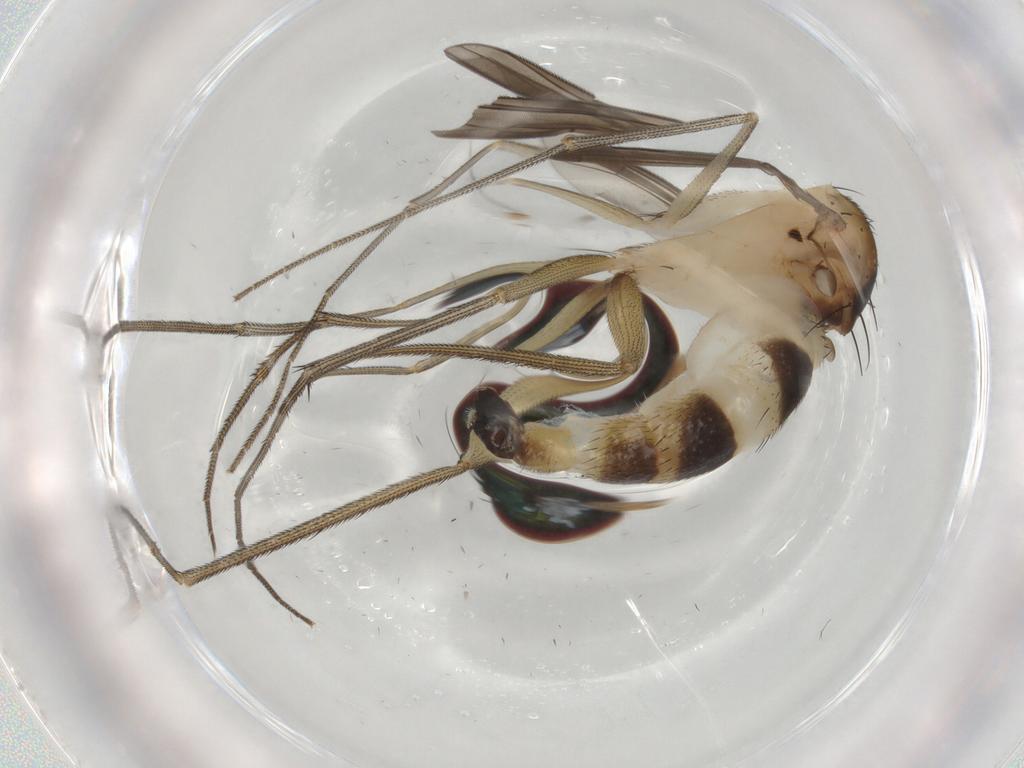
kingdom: Animalia
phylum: Arthropoda
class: Insecta
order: Diptera
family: Dolichopodidae
